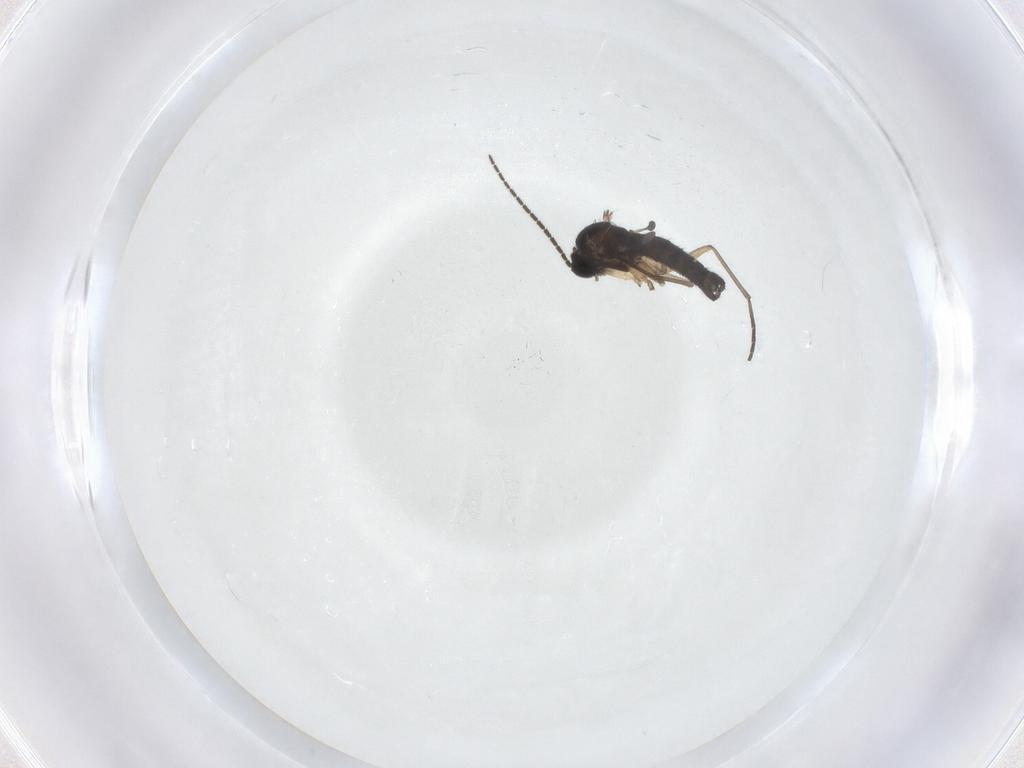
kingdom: Animalia
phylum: Arthropoda
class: Insecta
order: Diptera
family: Sciaridae
